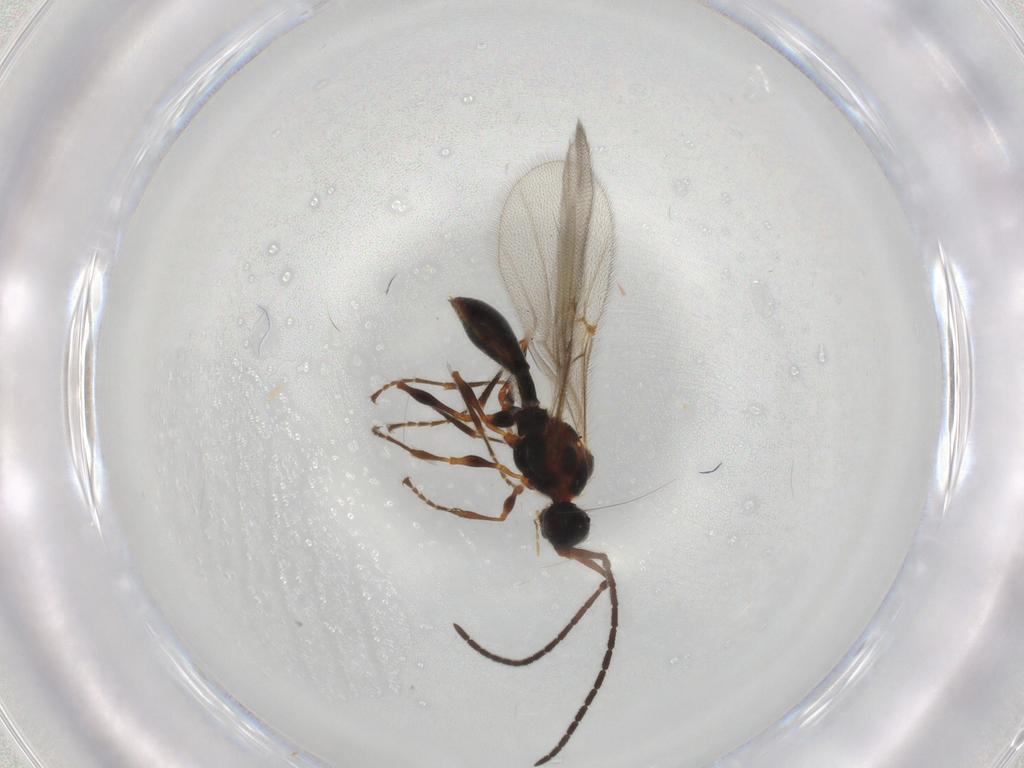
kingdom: Animalia
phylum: Arthropoda
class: Insecta
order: Hymenoptera
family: Diapriidae
